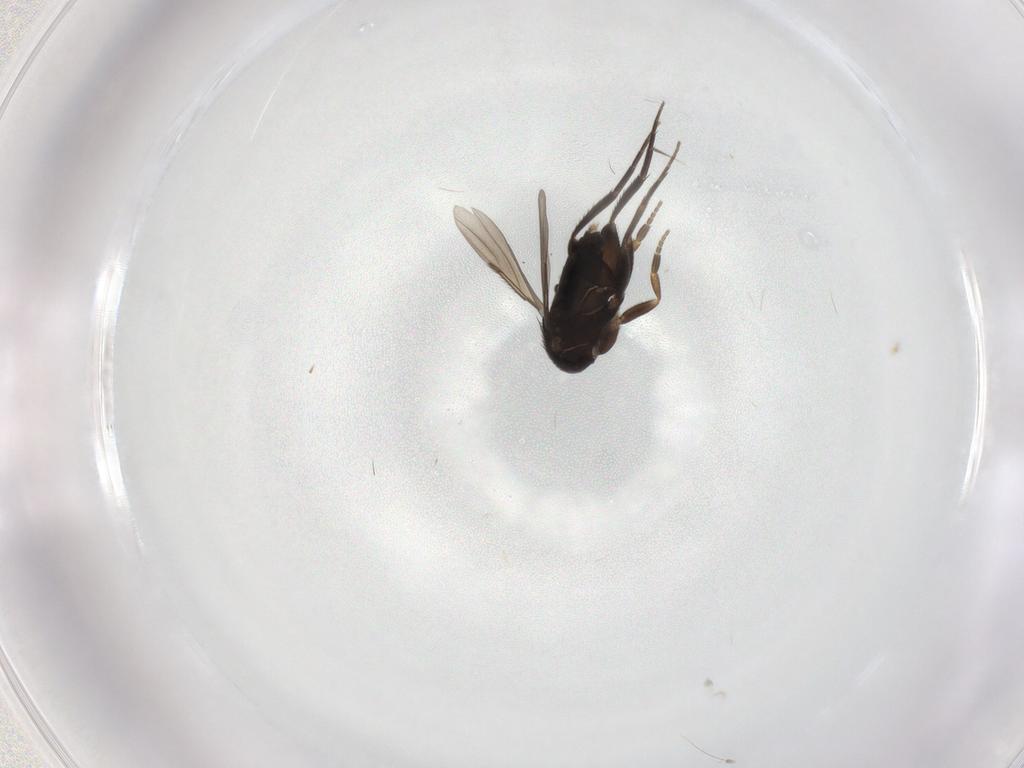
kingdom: Animalia
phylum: Arthropoda
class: Insecta
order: Diptera
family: Phoridae
